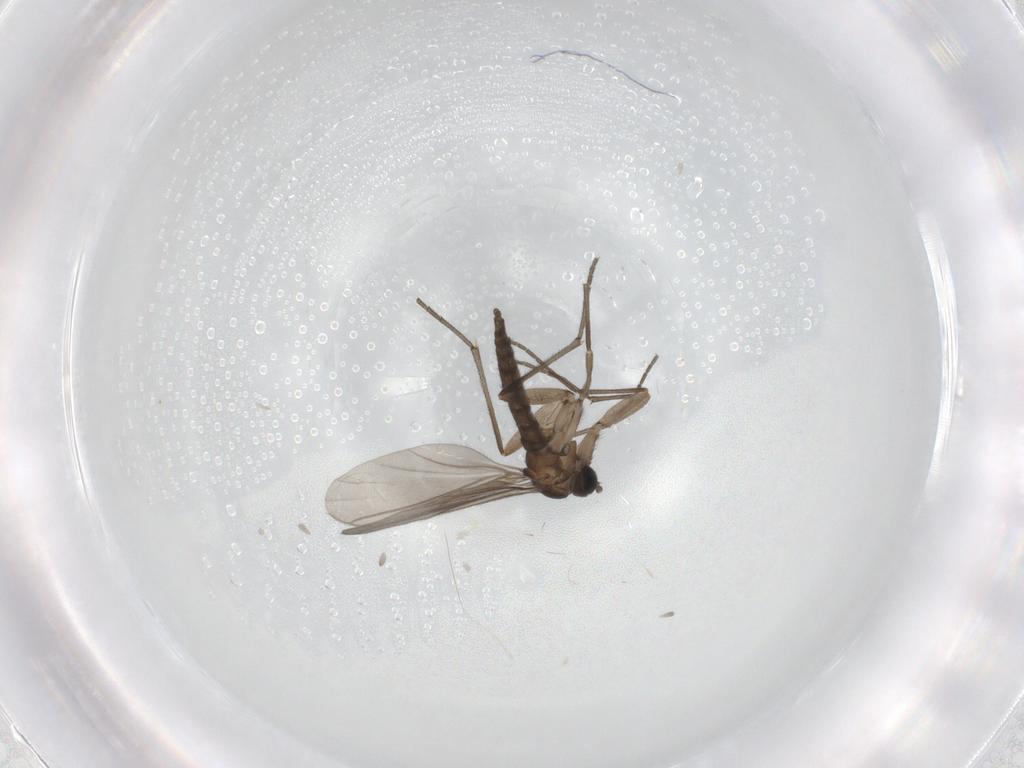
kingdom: Animalia
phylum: Arthropoda
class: Insecta
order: Diptera
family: Sciaridae
